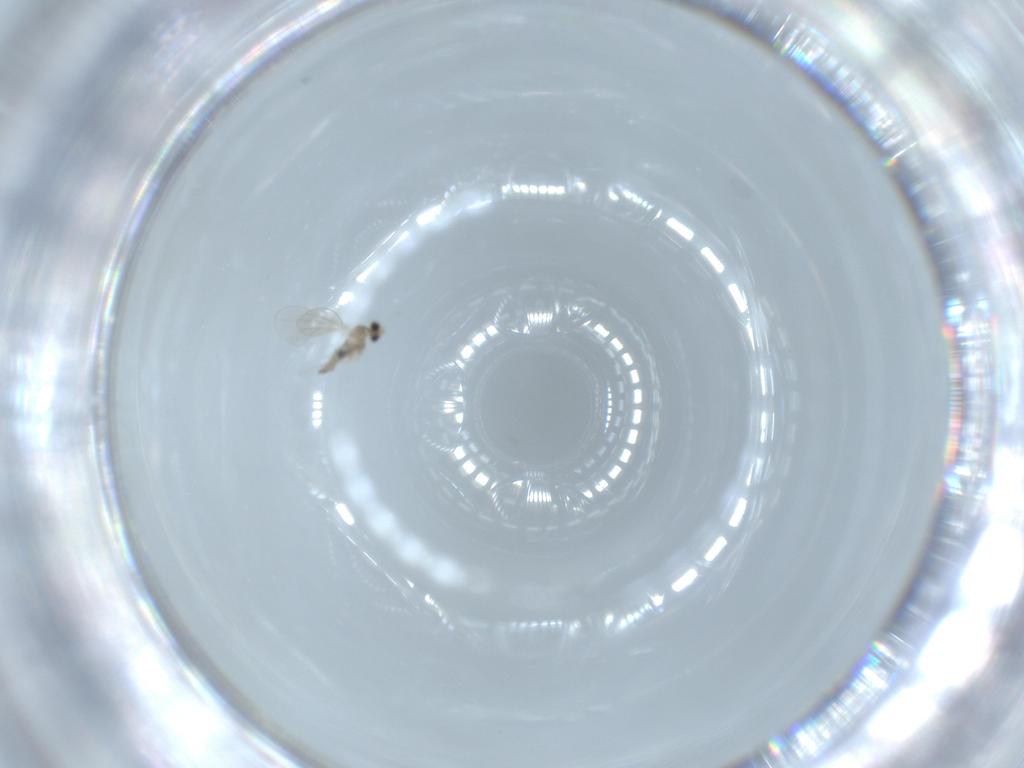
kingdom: Animalia
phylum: Arthropoda
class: Insecta
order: Diptera
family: Cecidomyiidae
